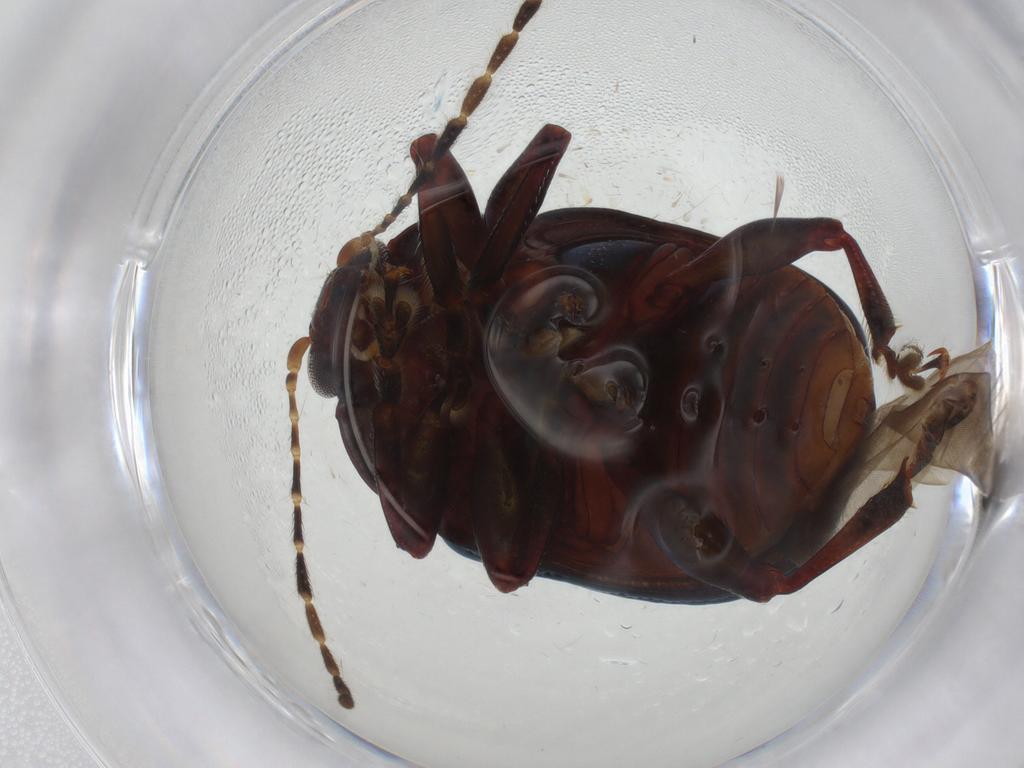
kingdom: Animalia
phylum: Arthropoda
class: Insecta
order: Coleoptera
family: Chrysomelidae
